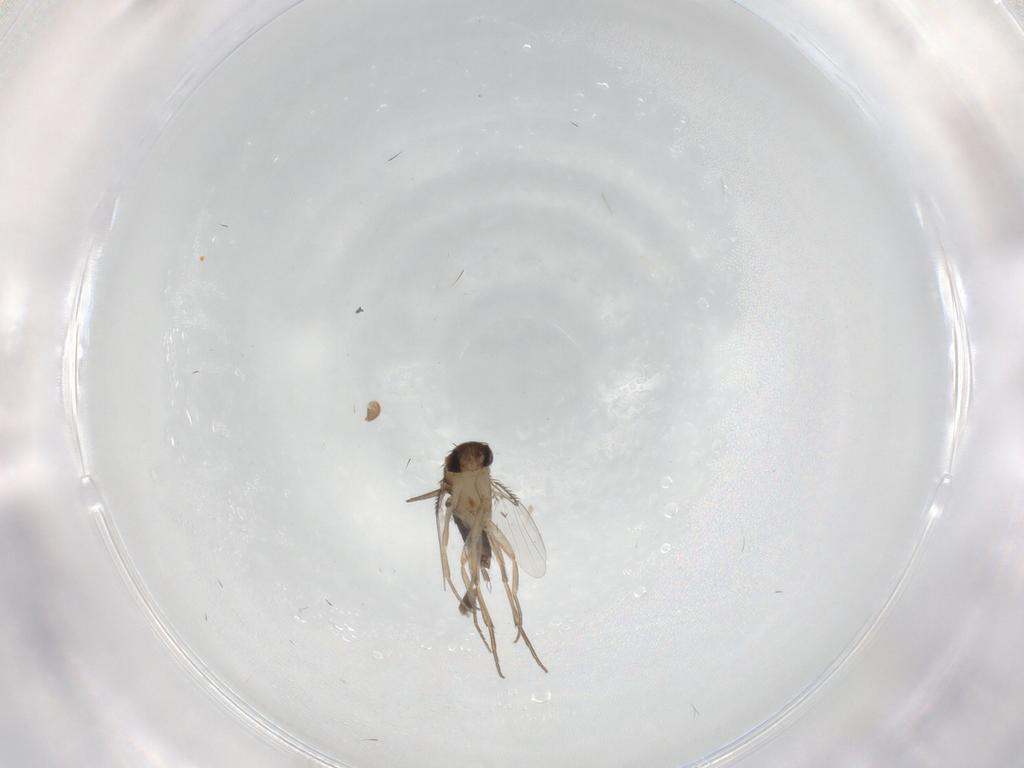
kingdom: Animalia
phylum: Arthropoda
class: Insecta
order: Diptera
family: Phoridae
